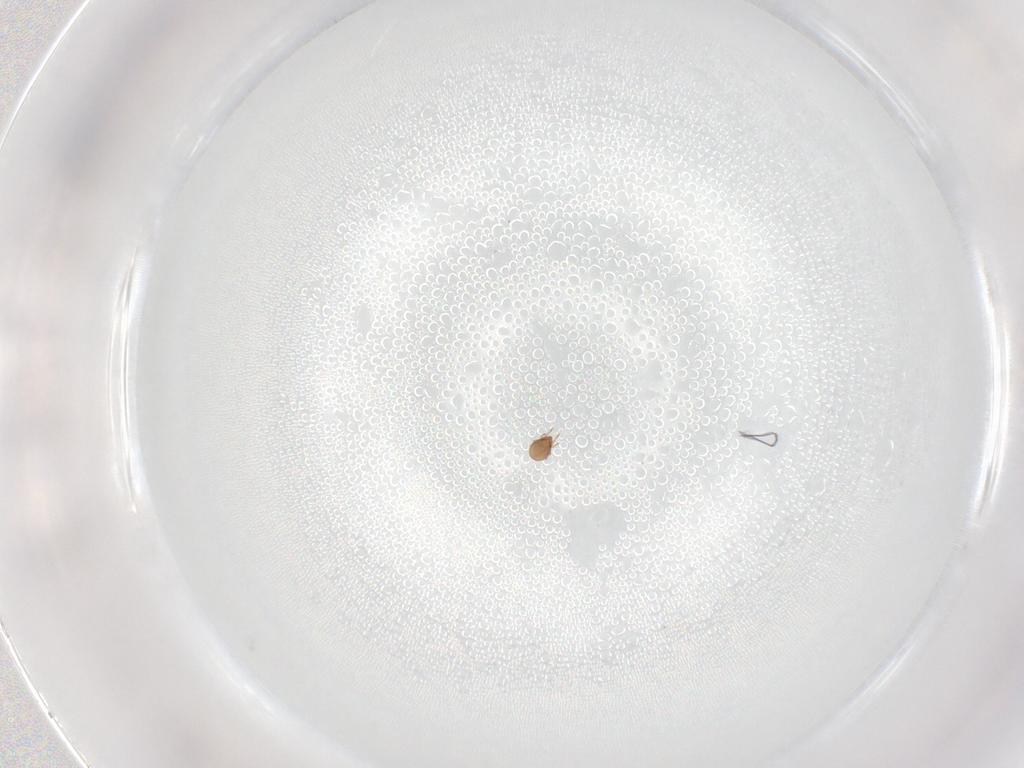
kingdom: Animalia
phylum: Arthropoda
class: Arachnida
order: Sarcoptiformes
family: Astegistidae
